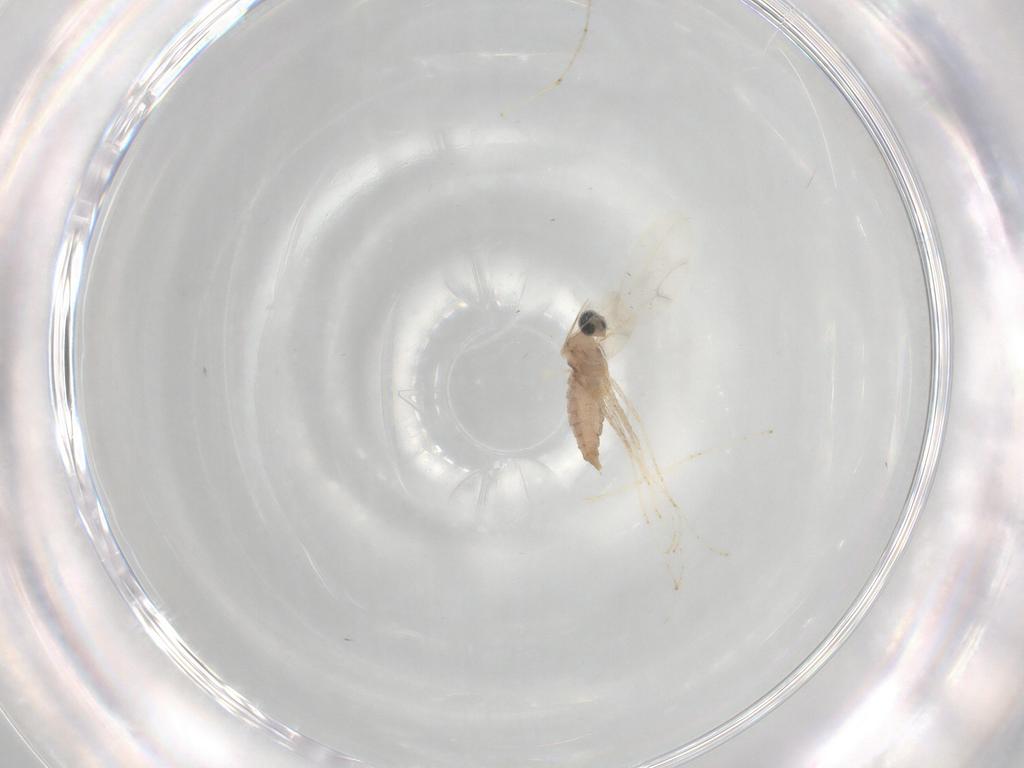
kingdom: Animalia
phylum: Arthropoda
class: Insecta
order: Diptera
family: Cecidomyiidae
